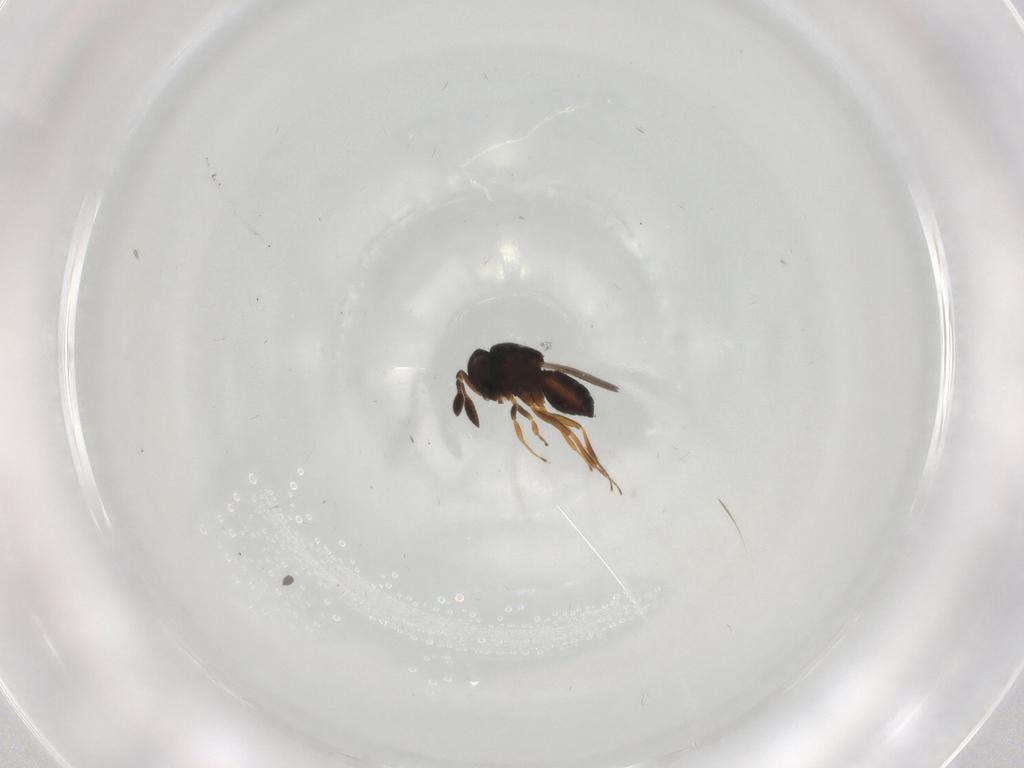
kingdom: Animalia
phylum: Arthropoda
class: Insecta
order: Hymenoptera
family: Scelionidae
